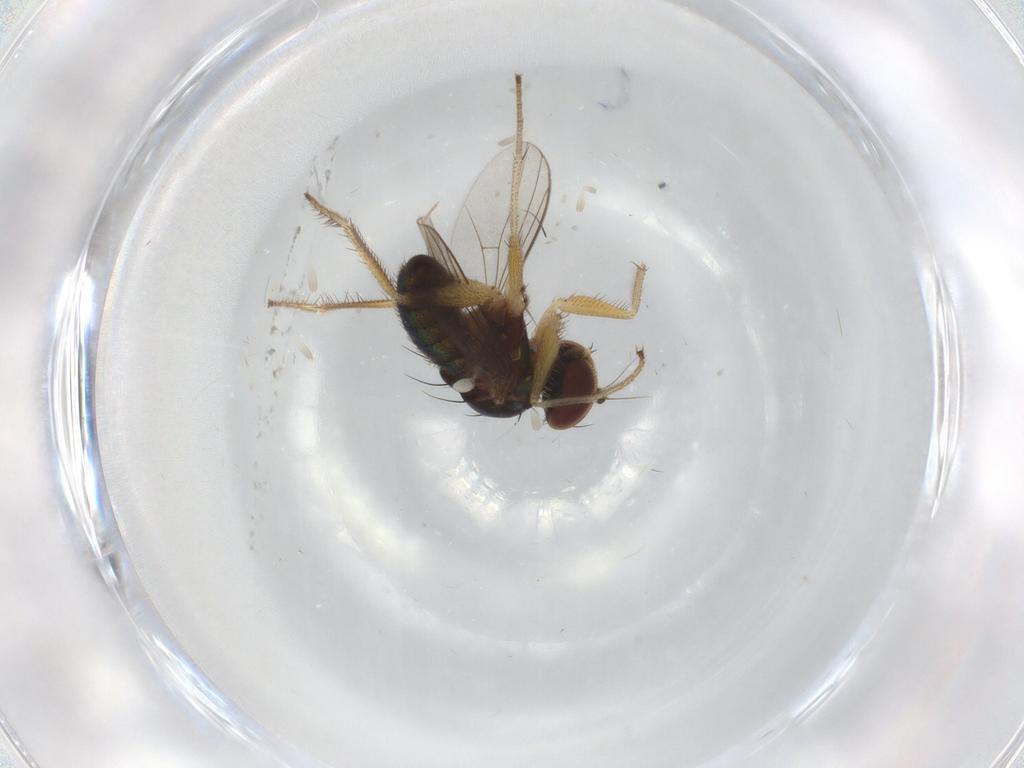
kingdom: Animalia
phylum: Arthropoda
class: Insecta
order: Diptera
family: Chironomidae
